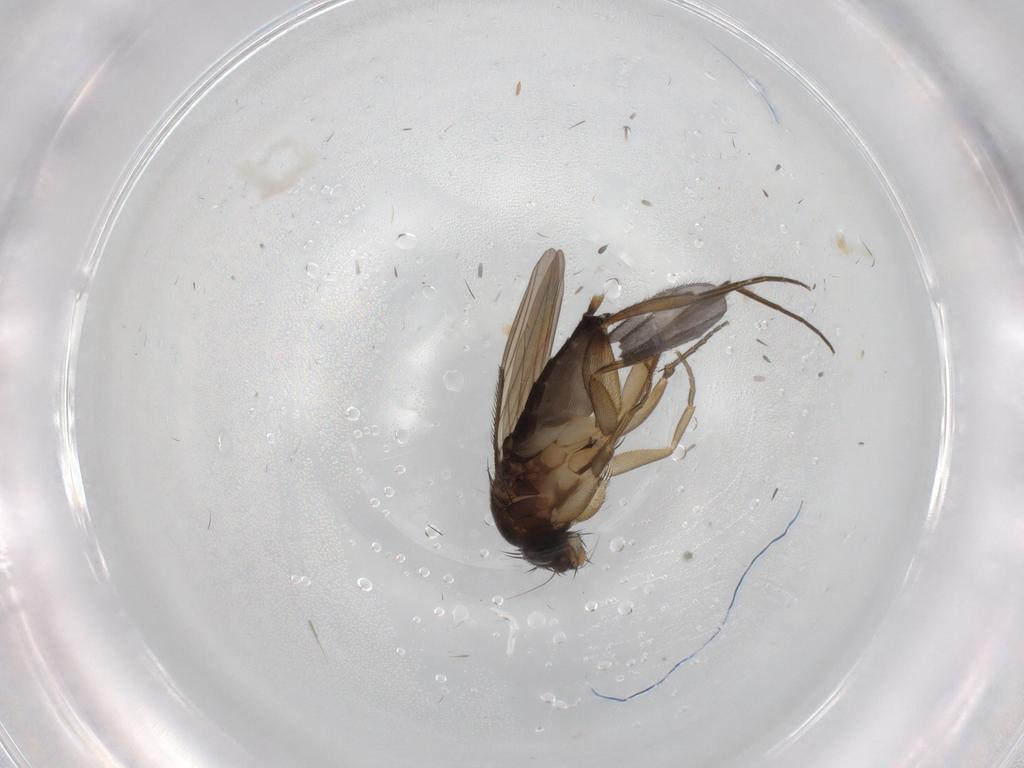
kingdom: Animalia
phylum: Arthropoda
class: Insecta
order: Diptera
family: Phoridae
